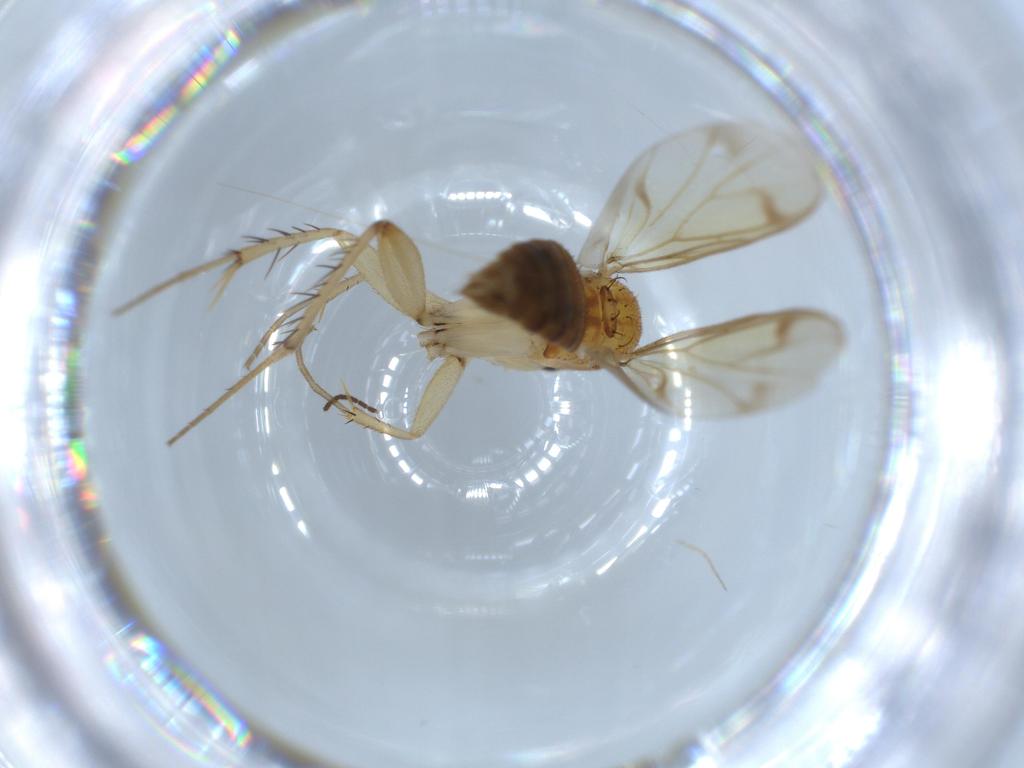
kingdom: Animalia
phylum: Arthropoda
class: Insecta
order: Diptera
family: Mycetophilidae
